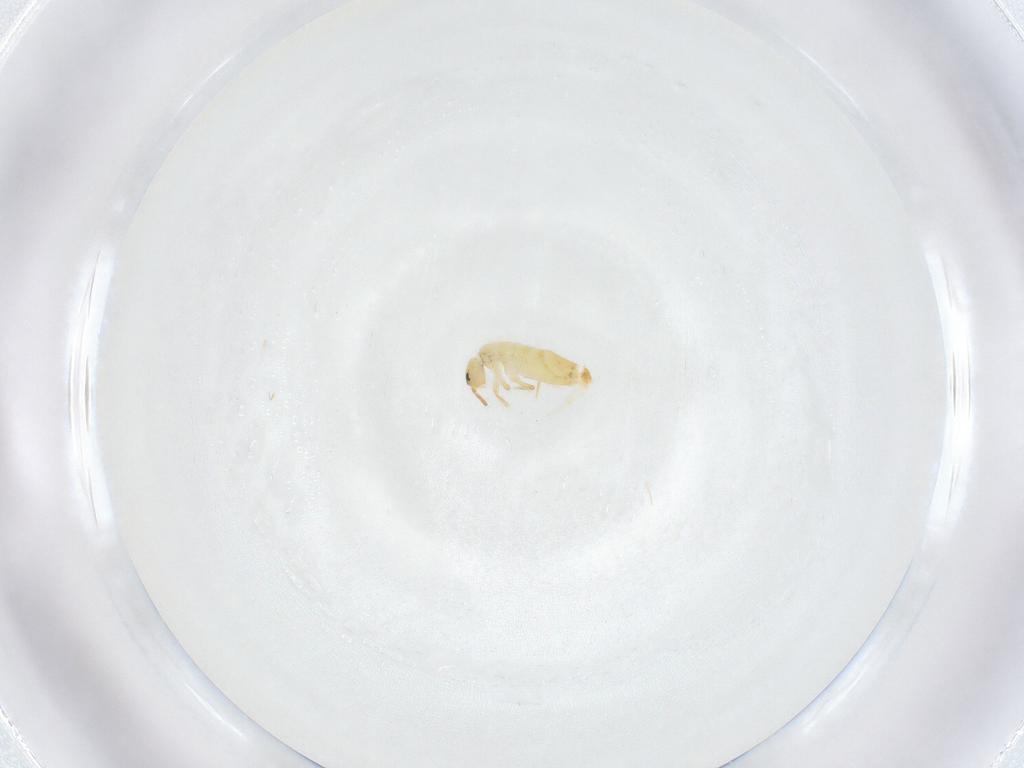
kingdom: Animalia
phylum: Arthropoda
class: Collembola
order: Entomobryomorpha
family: Entomobryidae
